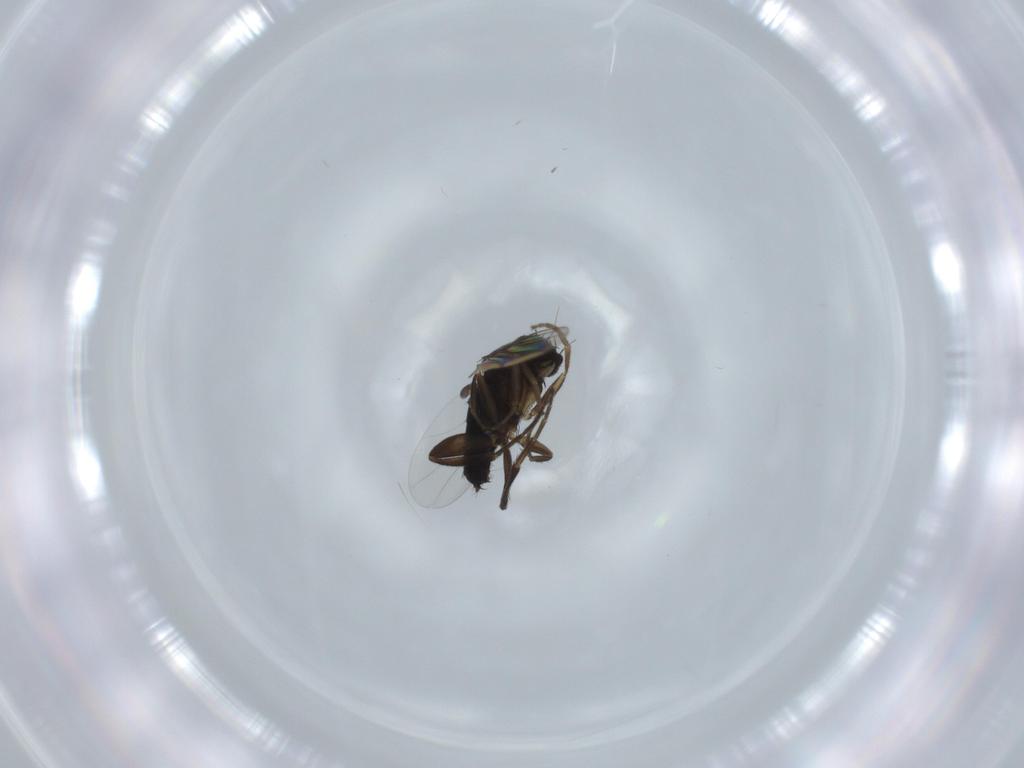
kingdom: Animalia
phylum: Arthropoda
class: Insecta
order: Diptera
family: Phoridae
